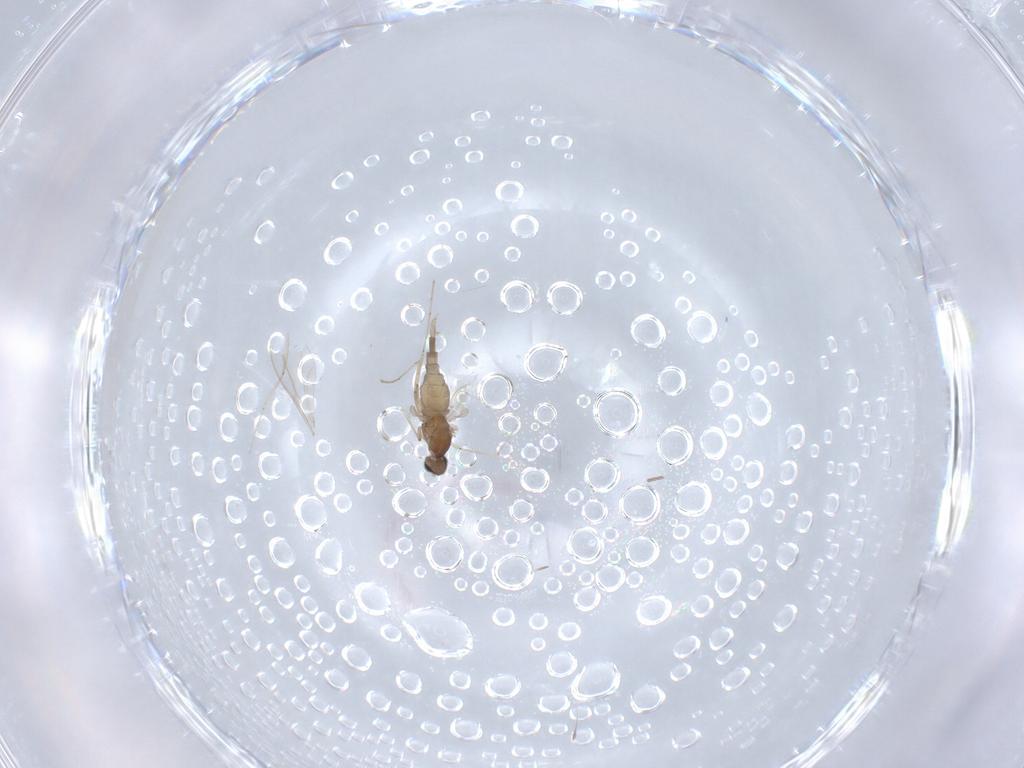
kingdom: Animalia
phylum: Arthropoda
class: Insecta
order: Diptera
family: Cecidomyiidae
